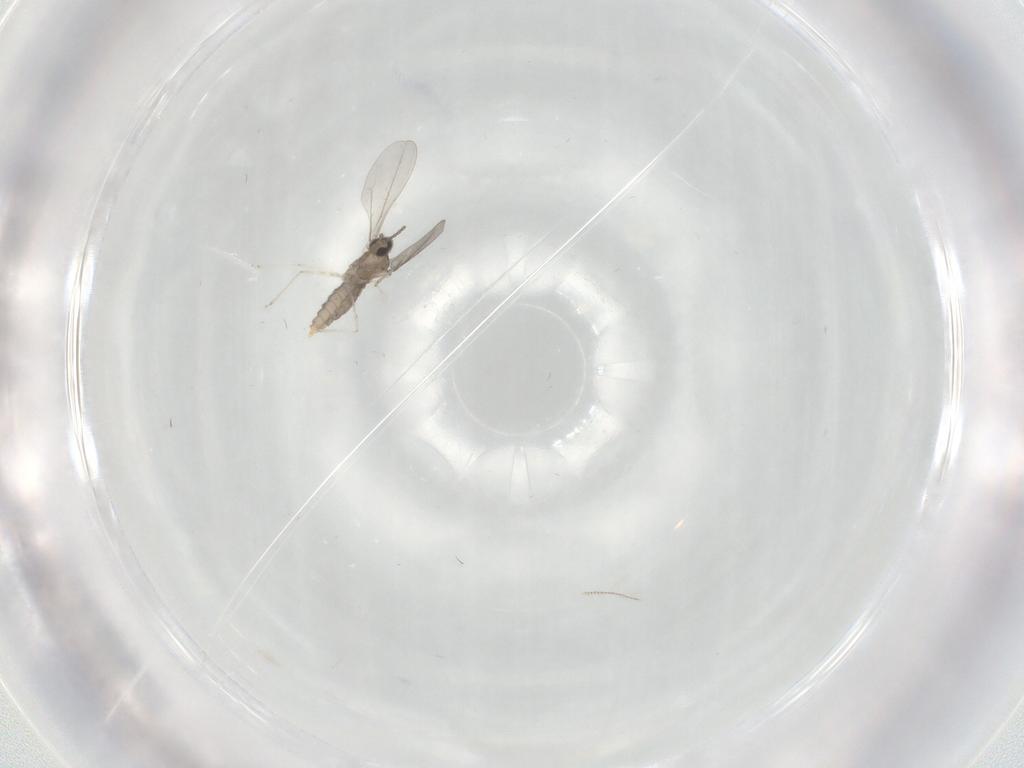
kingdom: Animalia
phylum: Arthropoda
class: Insecta
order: Diptera
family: Cecidomyiidae
